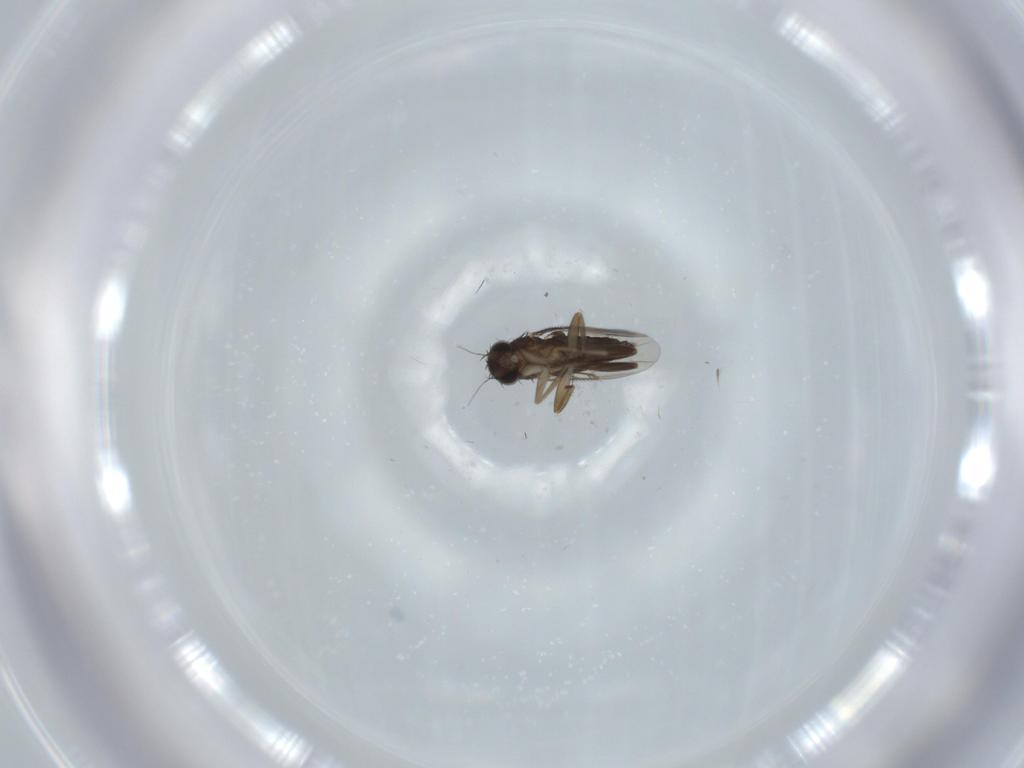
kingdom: Animalia
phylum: Arthropoda
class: Insecta
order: Diptera
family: Phoridae
